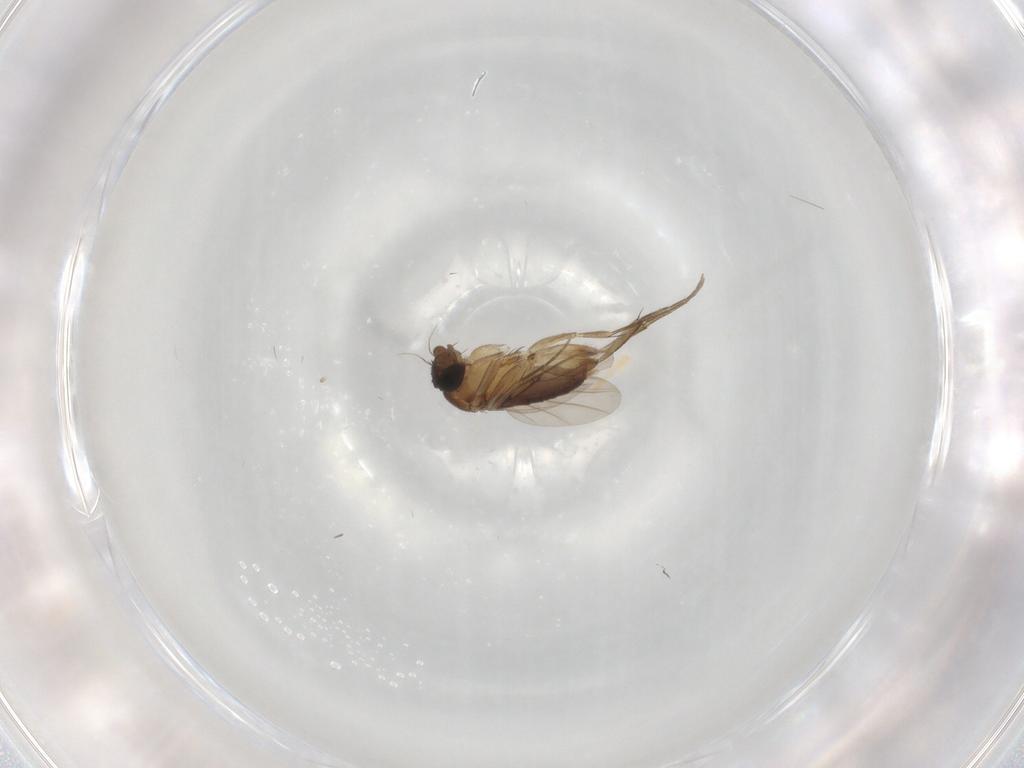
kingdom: Animalia
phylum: Arthropoda
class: Insecta
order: Diptera
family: Phoridae
